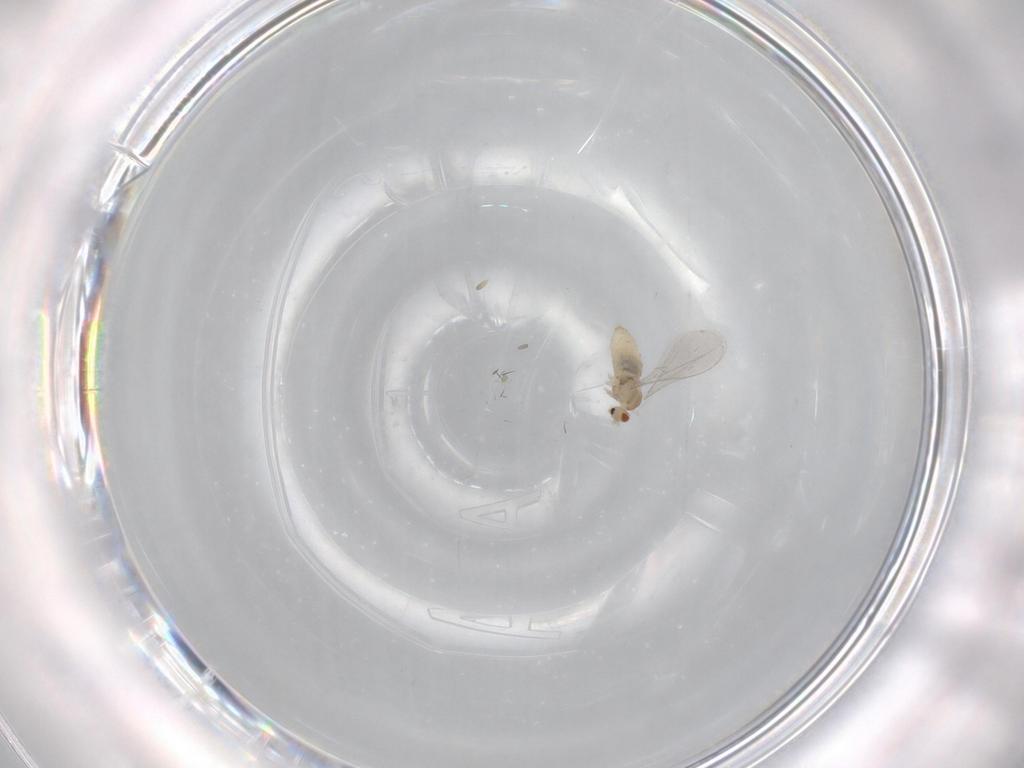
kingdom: Animalia
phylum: Arthropoda
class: Insecta
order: Diptera
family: Cecidomyiidae
